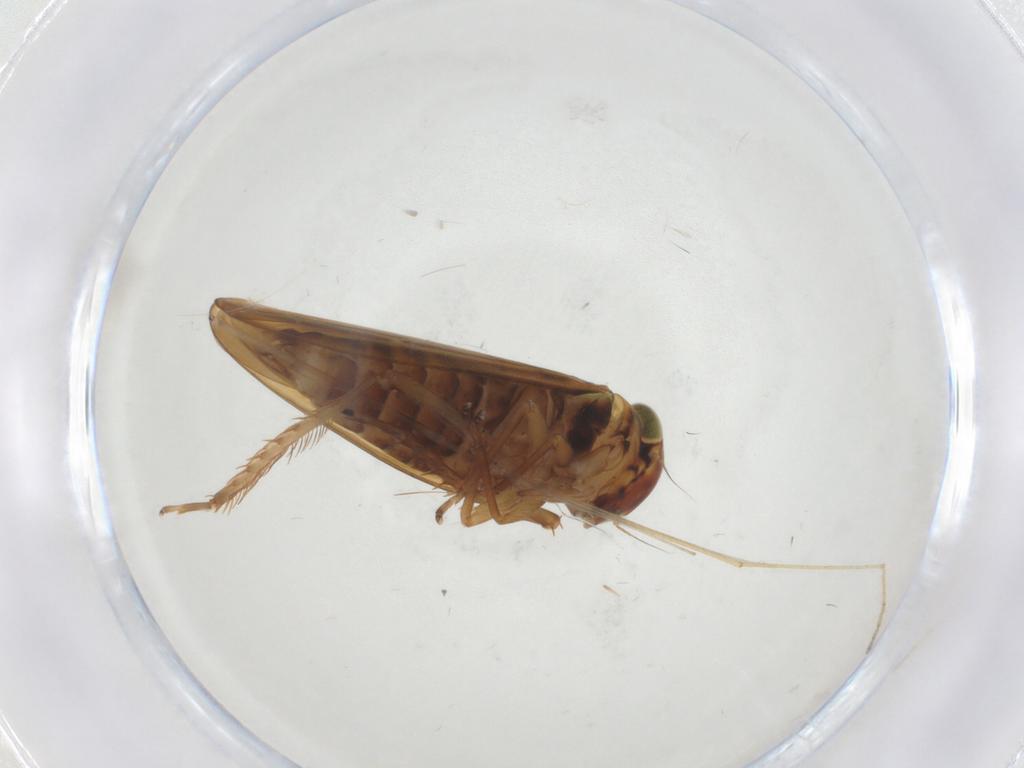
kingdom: Animalia
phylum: Arthropoda
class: Insecta
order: Hemiptera
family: Cicadellidae
